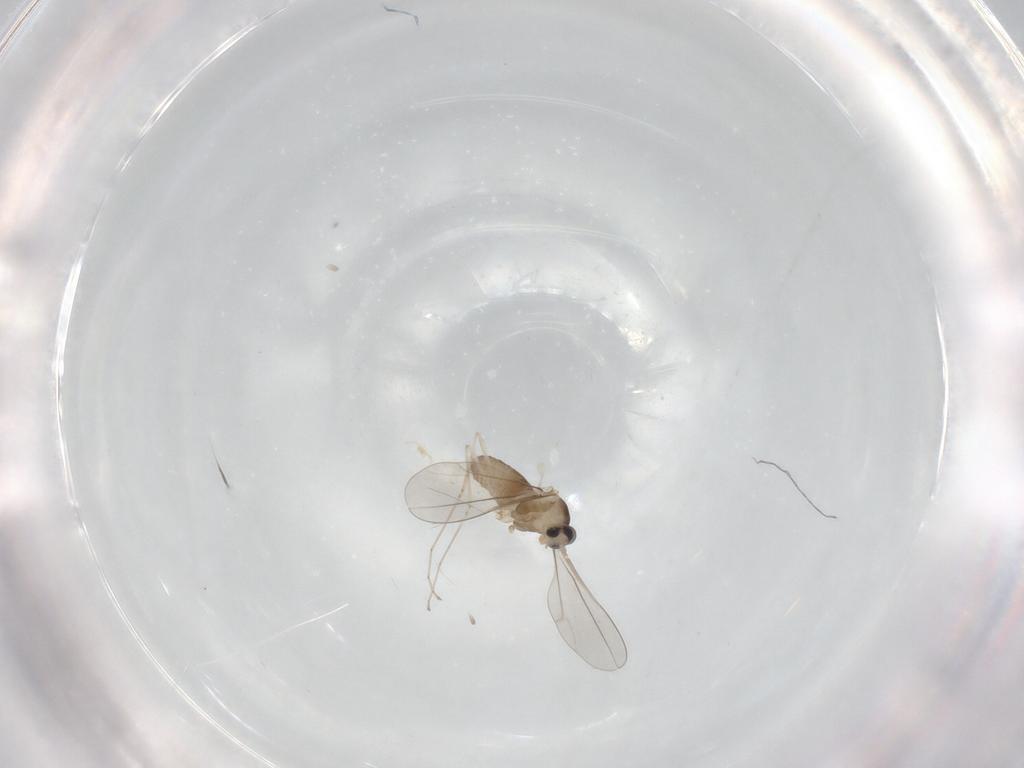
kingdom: Animalia
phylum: Arthropoda
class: Insecta
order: Diptera
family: Cecidomyiidae
